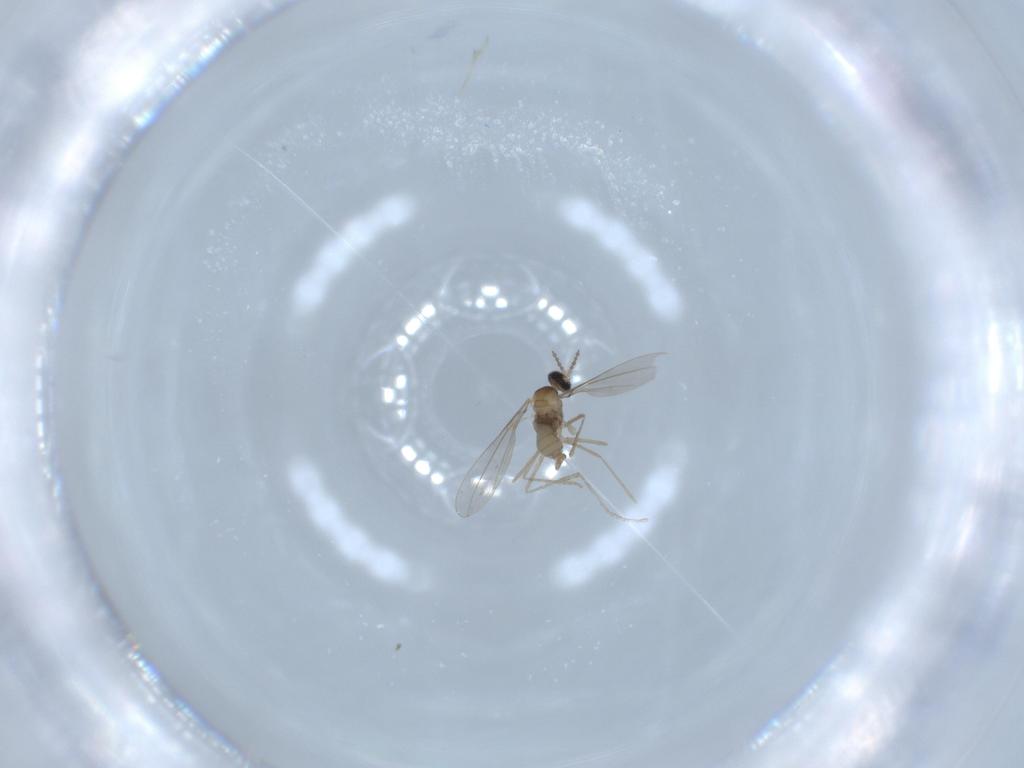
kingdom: Animalia
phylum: Arthropoda
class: Insecta
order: Diptera
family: Cecidomyiidae
